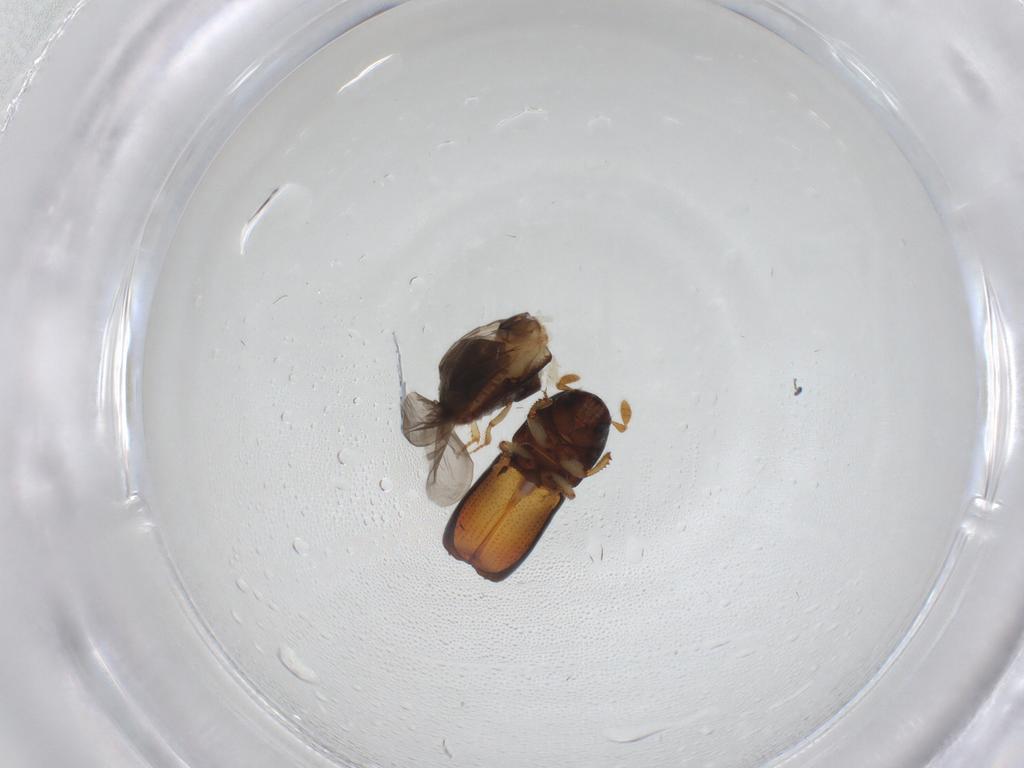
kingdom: Animalia
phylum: Arthropoda
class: Insecta
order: Coleoptera
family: Curculionidae
